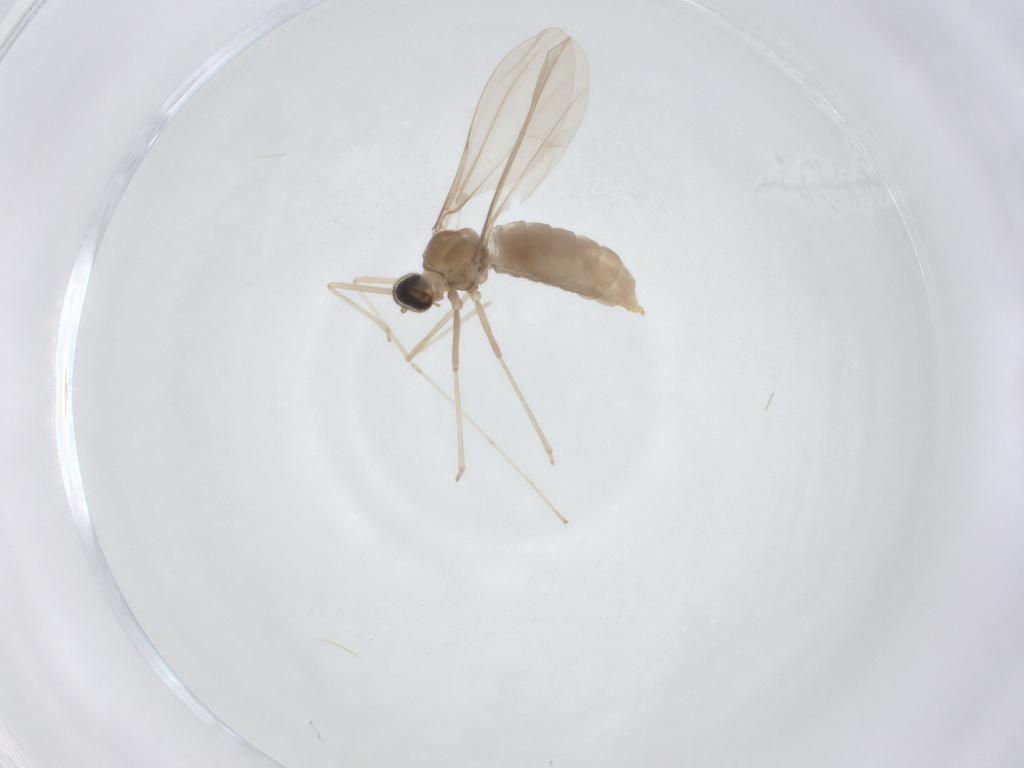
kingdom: Animalia
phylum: Arthropoda
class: Insecta
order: Diptera
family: Cecidomyiidae
